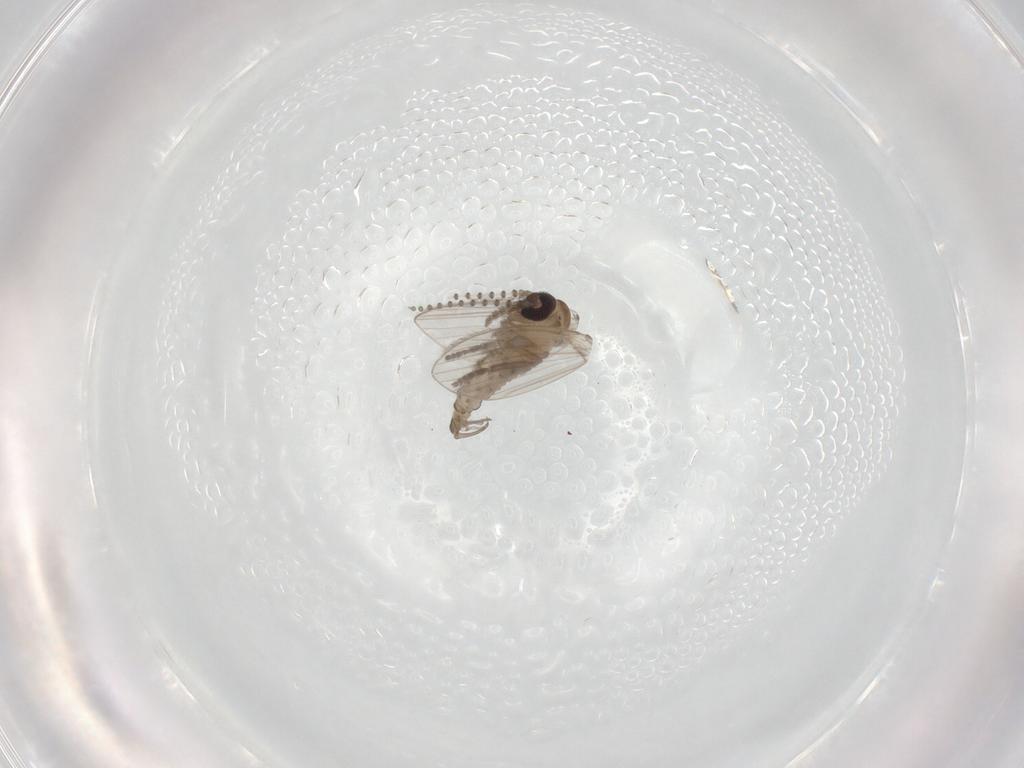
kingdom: Animalia
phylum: Arthropoda
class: Insecta
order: Diptera
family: Psychodidae
